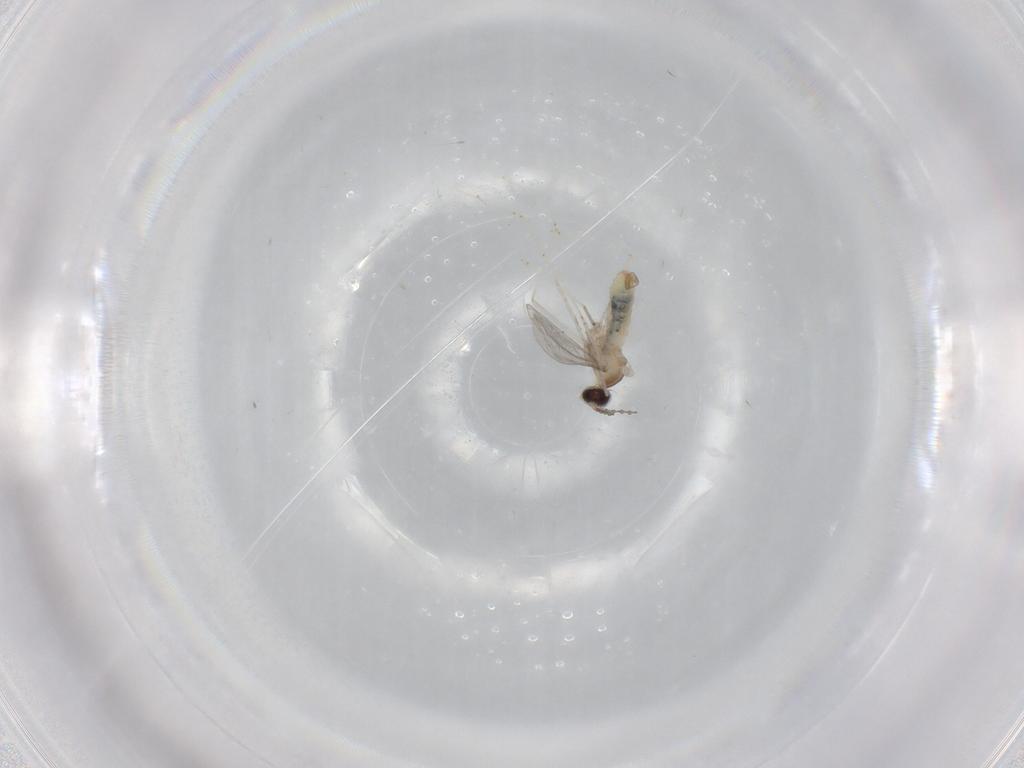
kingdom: Animalia
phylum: Arthropoda
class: Insecta
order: Diptera
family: Cecidomyiidae
